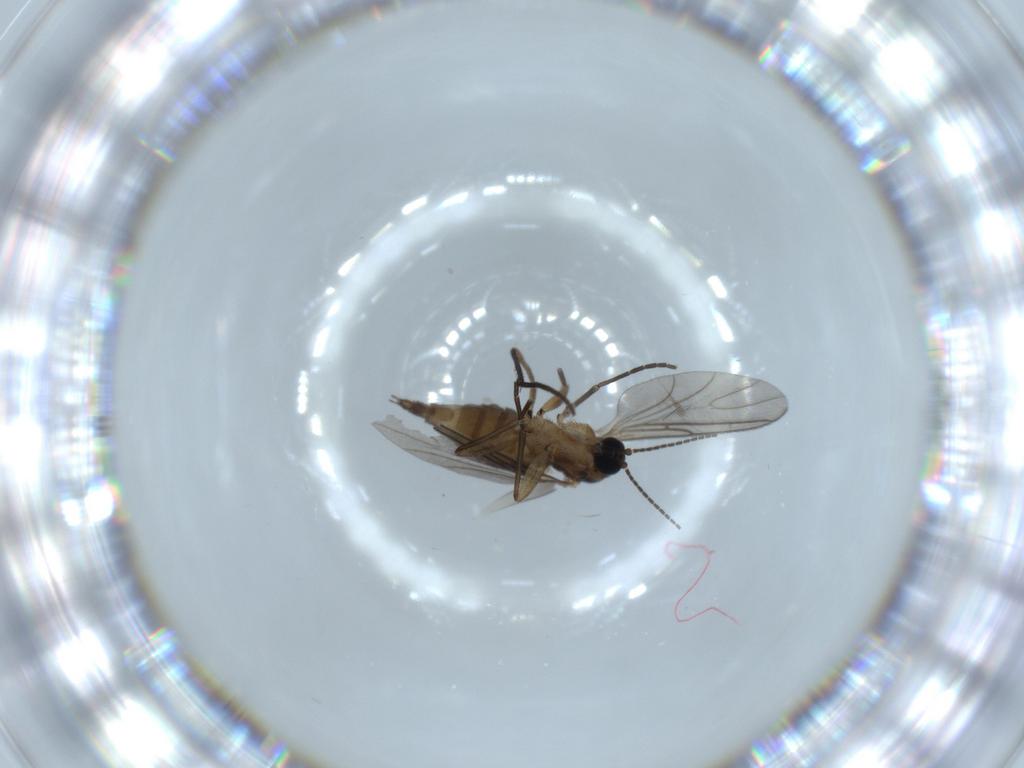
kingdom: Animalia
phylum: Arthropoda
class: Insecta
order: Diptera
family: Sciaridae
